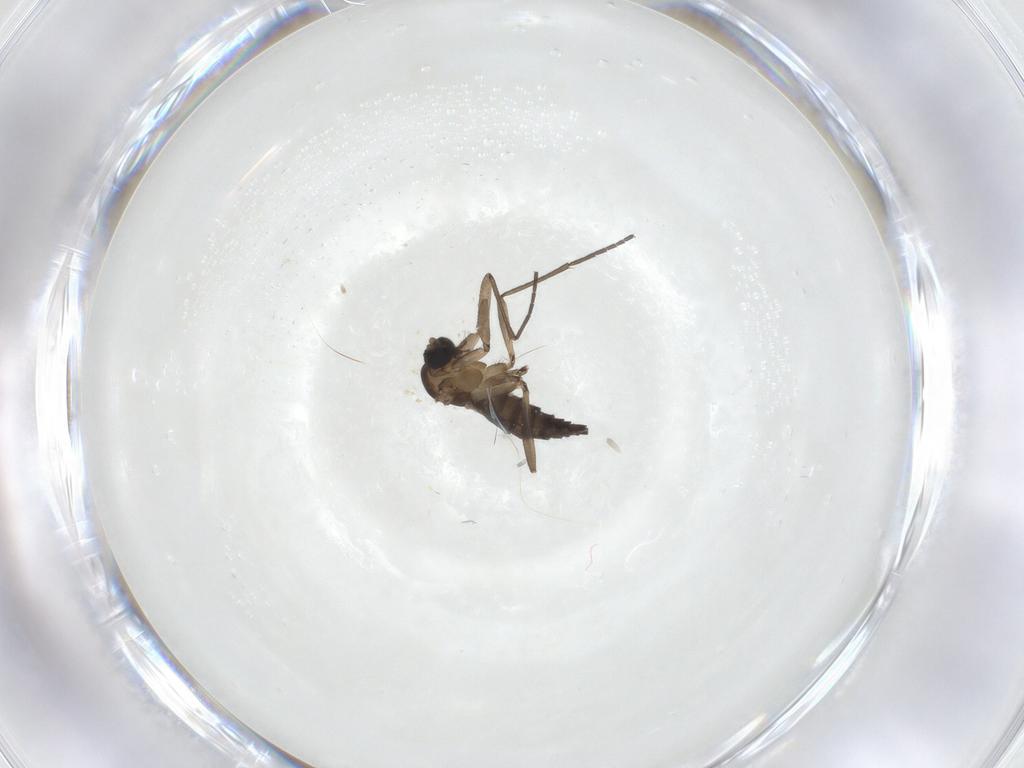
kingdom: Animalia
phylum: Arthropoda
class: Insecta
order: Diptera
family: Chironomidae
